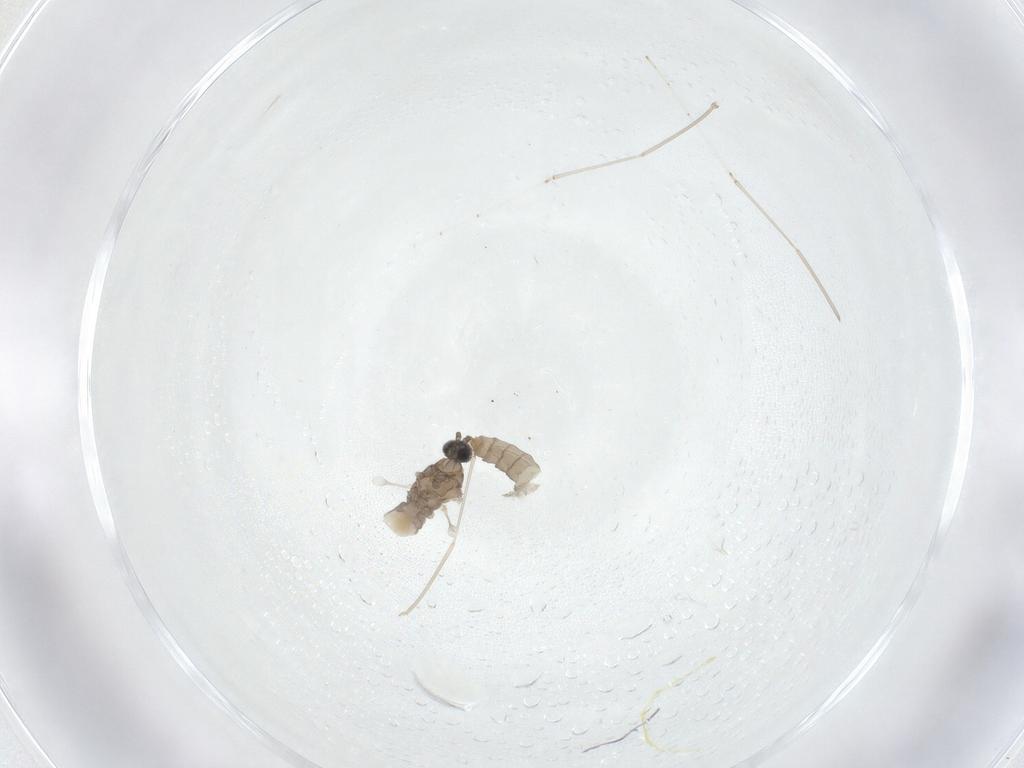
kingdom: Animalia
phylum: Arthropoda
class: Insecta
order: Diptera
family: Cecidomyiidae
